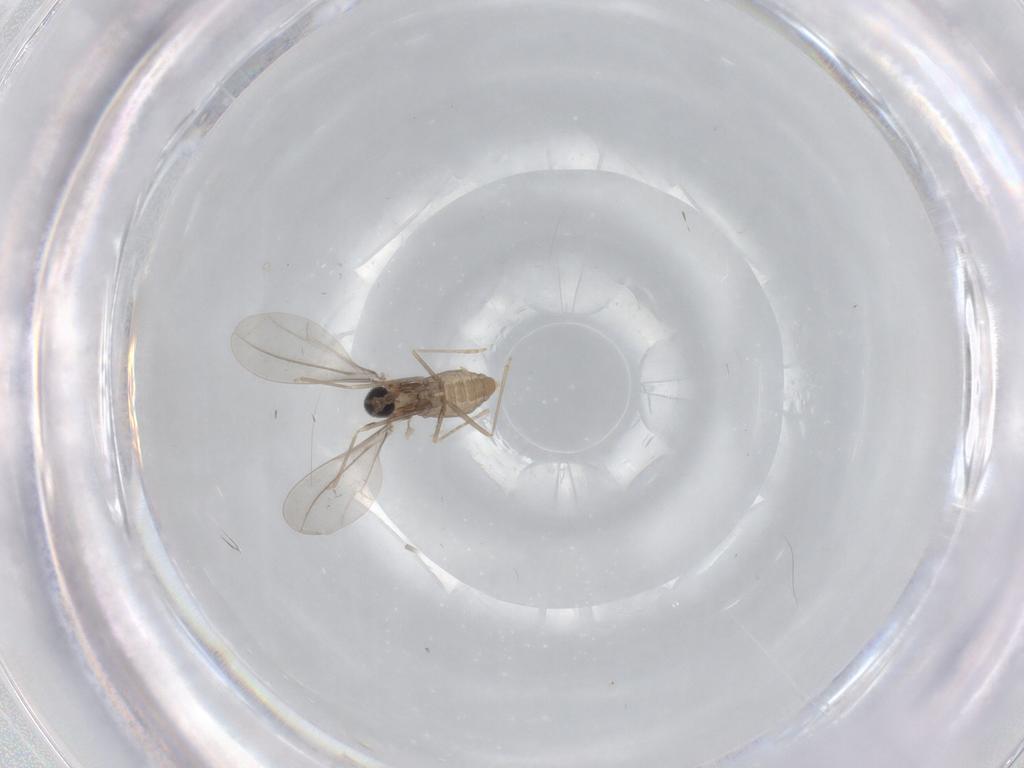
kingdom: Animalia
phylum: Arthropoda
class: Insecta
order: Diptera
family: Cecidomyiidae
